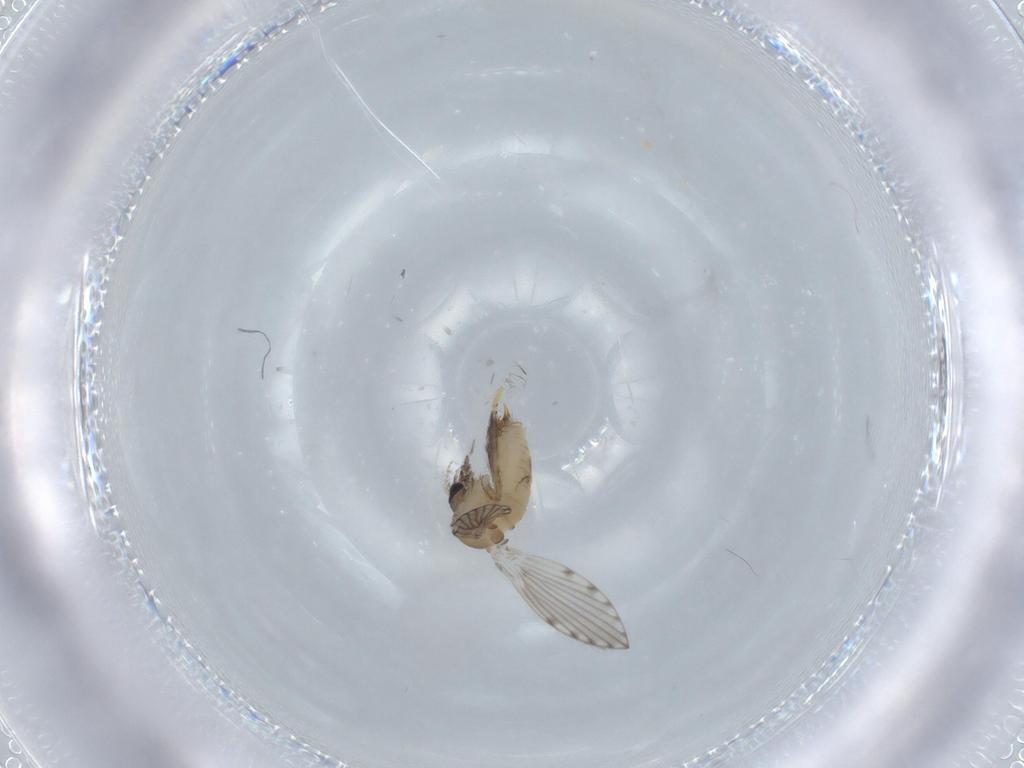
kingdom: Animalia
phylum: Arthropoda
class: Insecta
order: Diptera
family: Psychodidae
